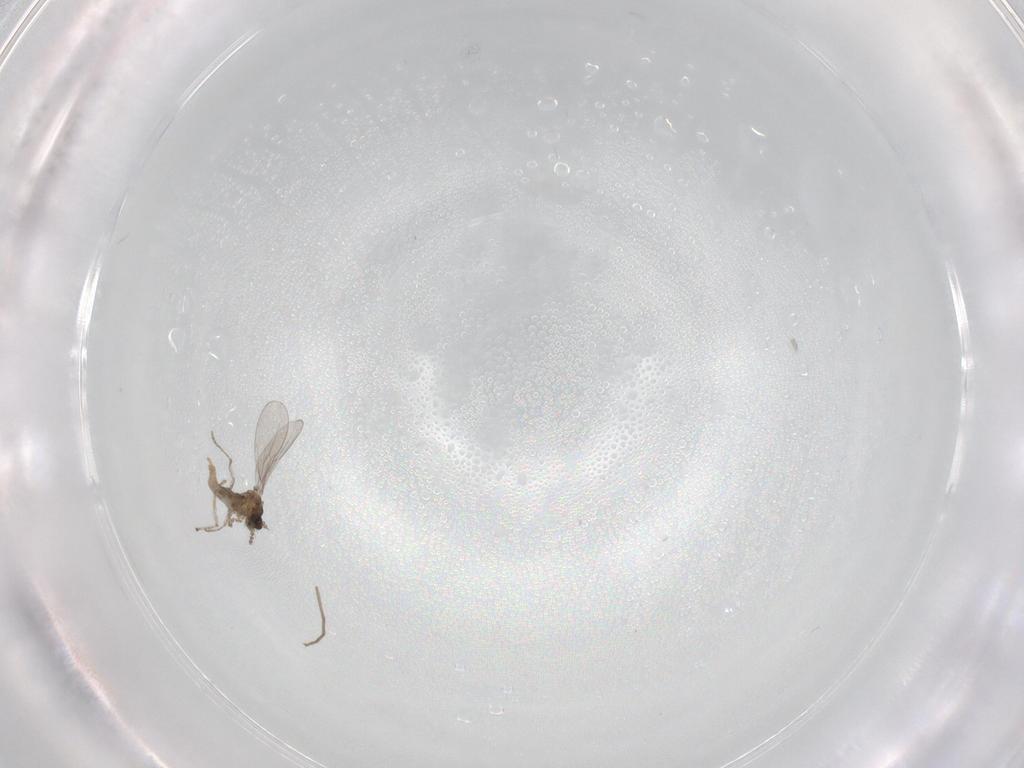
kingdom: Animalia
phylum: Arthropoda
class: Insecta
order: Diptera
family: Cecidomyiidae
